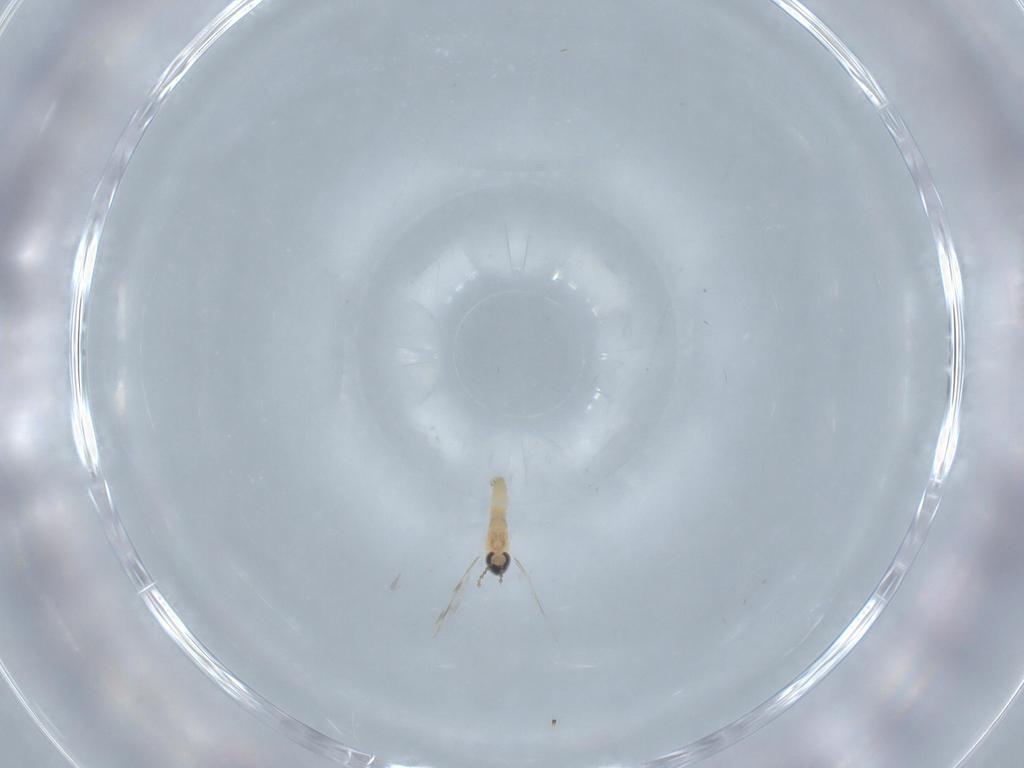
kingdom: Animalia
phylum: Arthropoda
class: Insecta
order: Diptera
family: Cecidomyiidae
